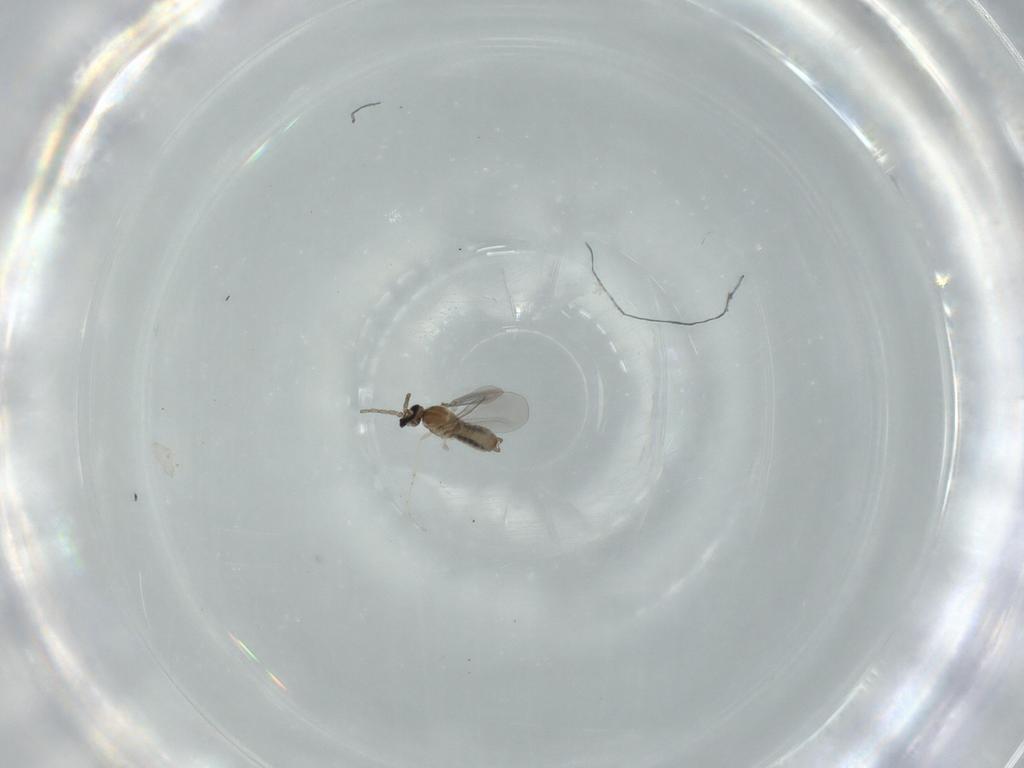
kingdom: Animalia
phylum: Arthropoda
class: Insecta
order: Diptera
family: Cecidomyiidae
